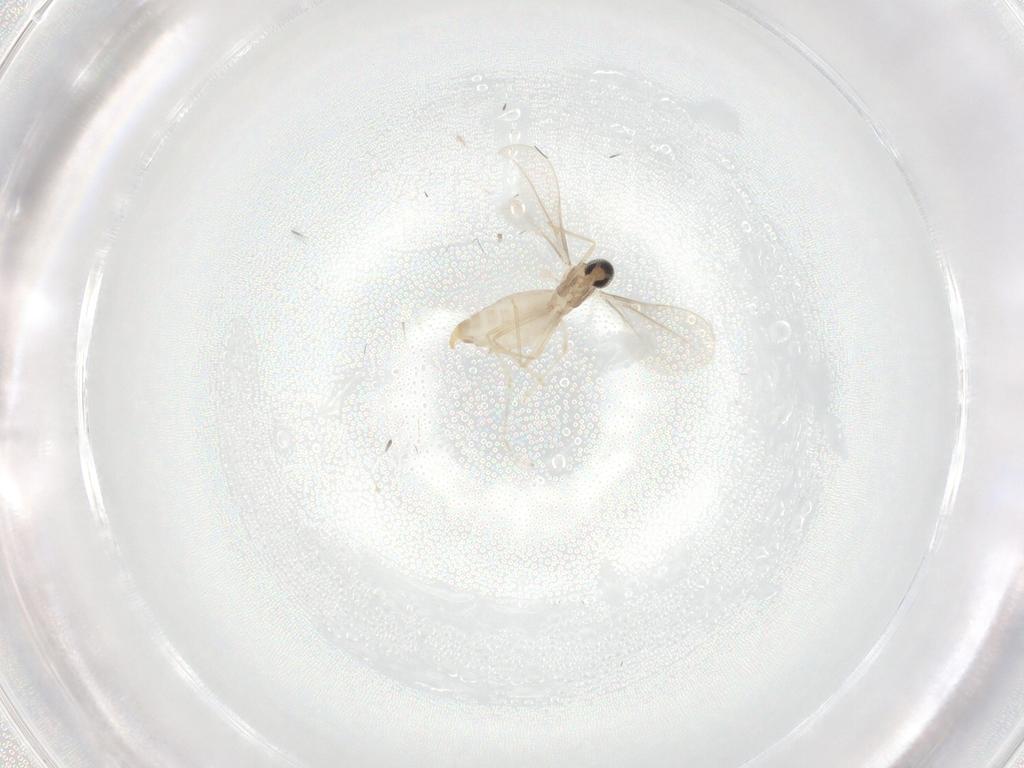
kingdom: Animalia
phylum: Arthropoda
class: Insecta
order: Diptera
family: Cecidomyiidae
